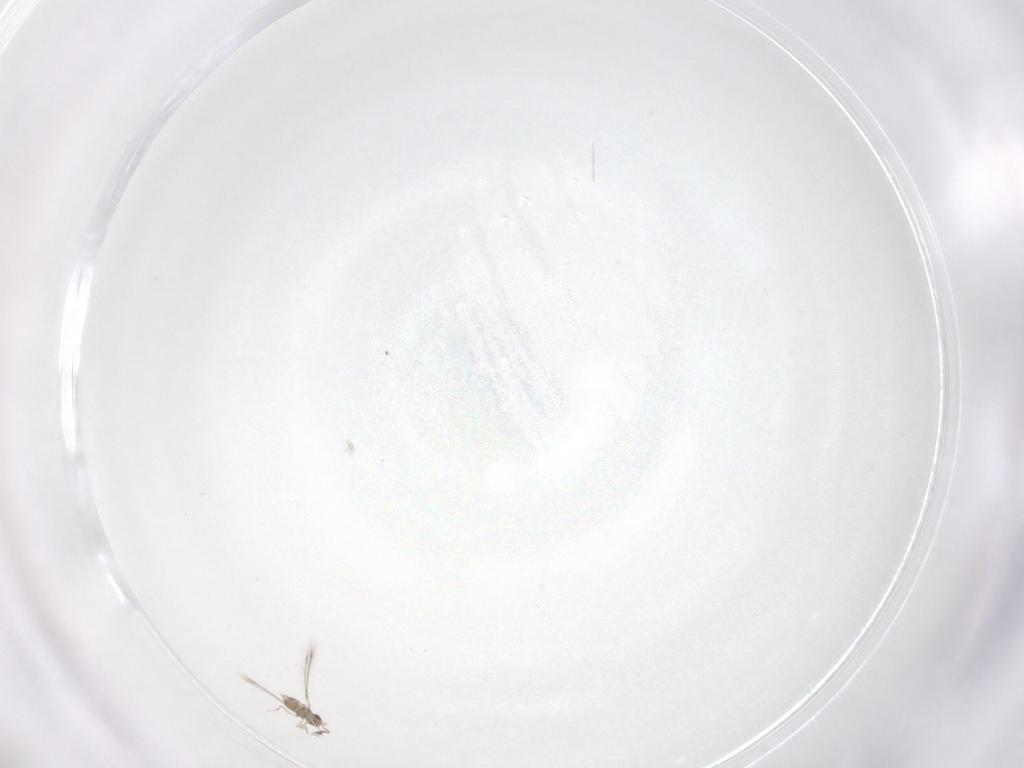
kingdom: Animalia
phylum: Arthropoda
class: Insecta
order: Hymenoptera
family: Mymaridae
